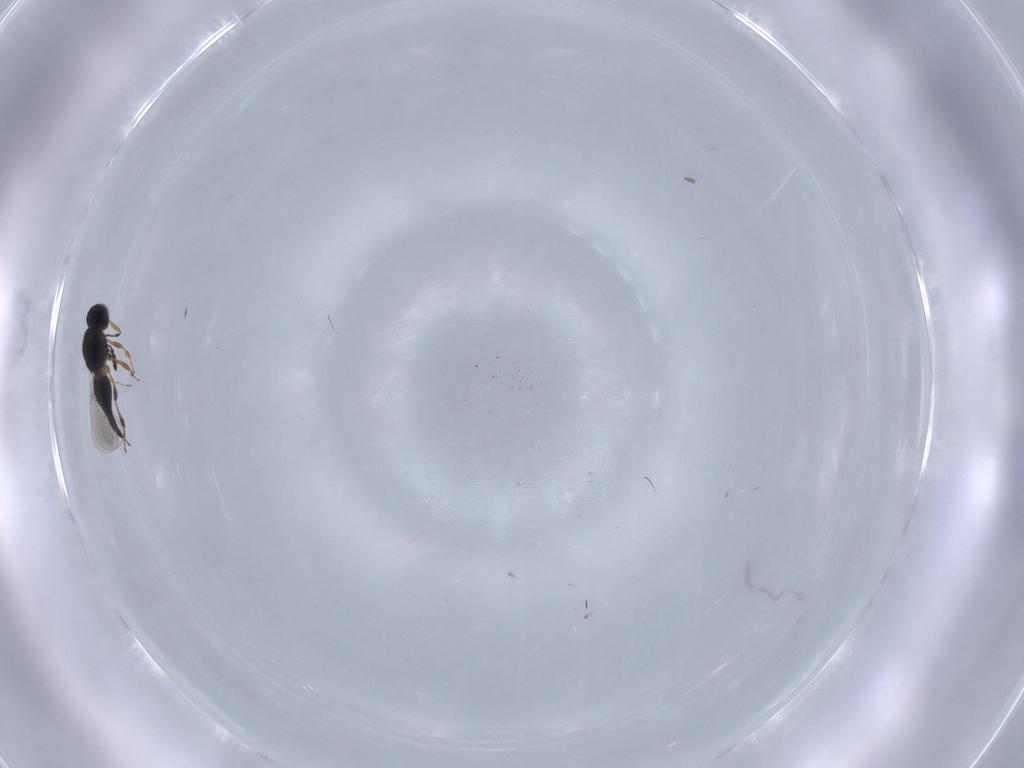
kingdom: Animalia
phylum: Arthropoda
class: Insecta
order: Hymenoptera
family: Platygastridae
